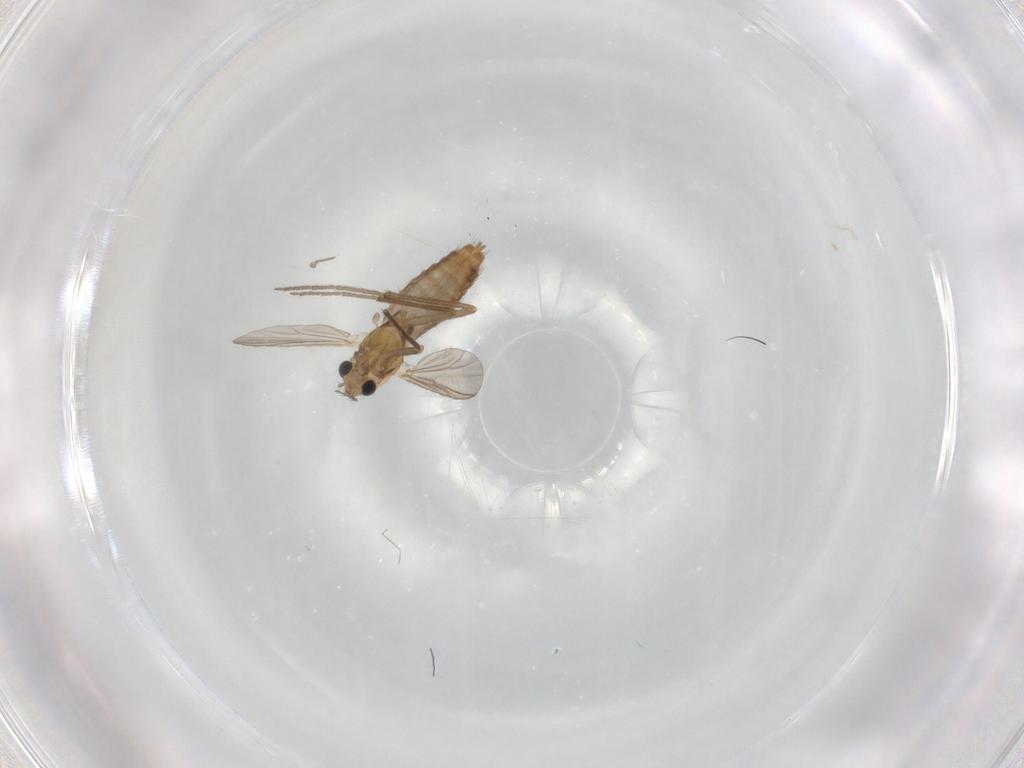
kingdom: Animalia
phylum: Arthropoda
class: Insecta
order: Diptera
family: Chironomidae
